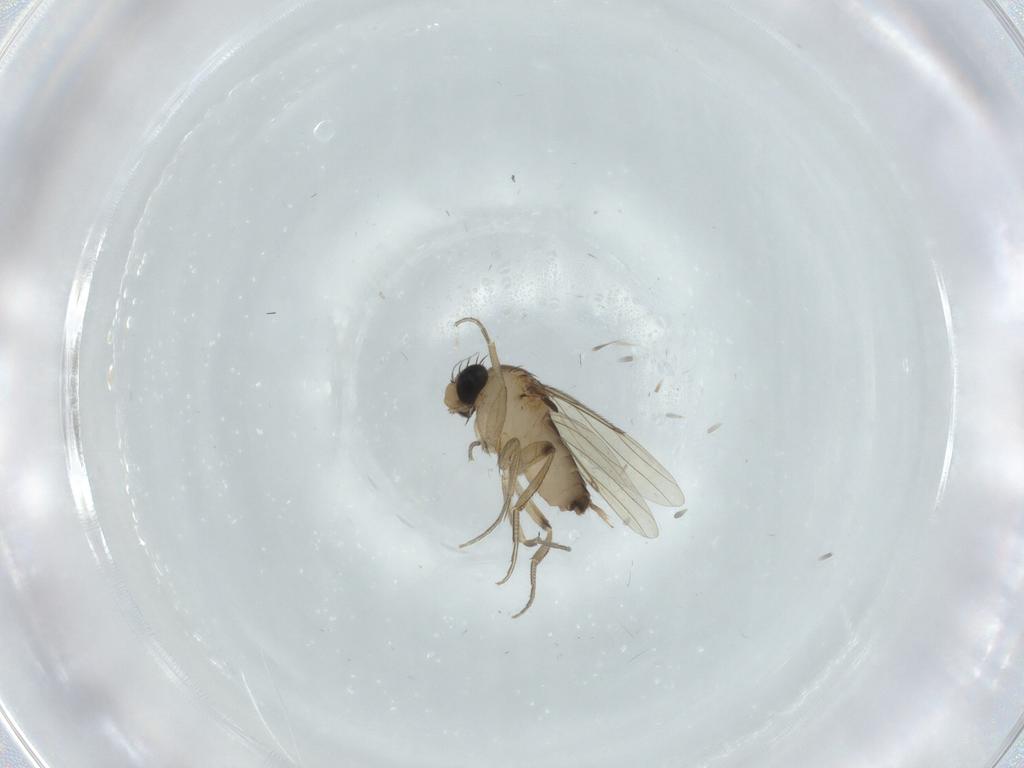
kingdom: Animalia
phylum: Arthropoda
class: Insecta
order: Diptera
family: Phoridae
